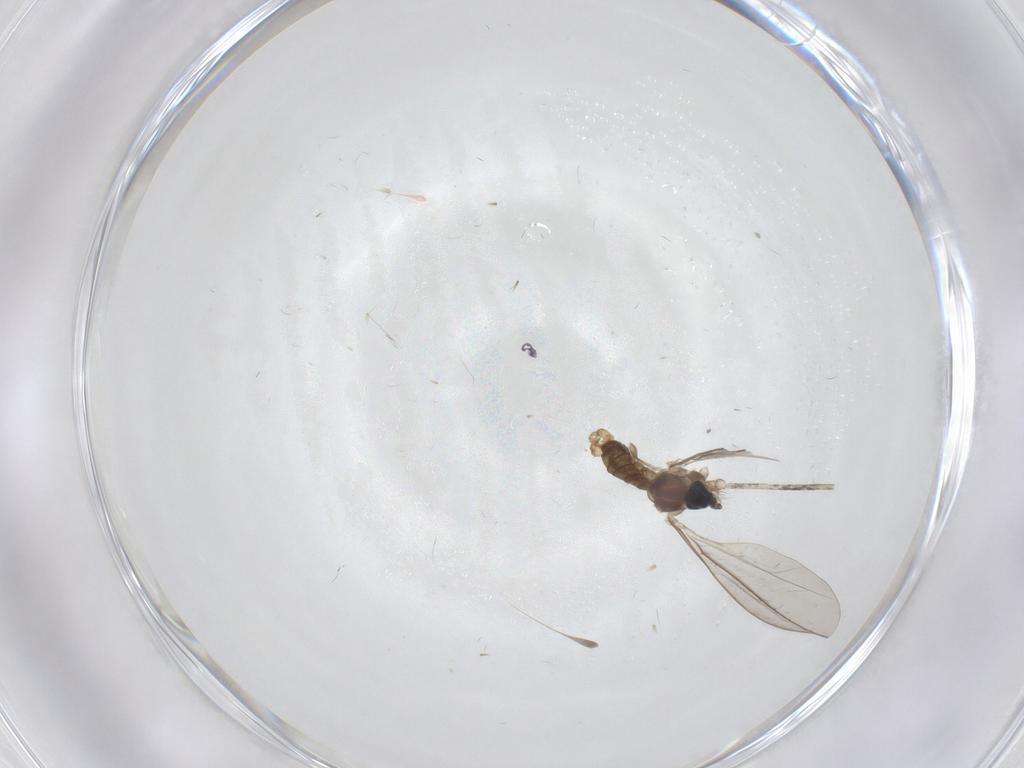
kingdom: Animalia
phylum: Arthropoda
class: Insecta
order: Diptera
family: Cecidomyiidae
